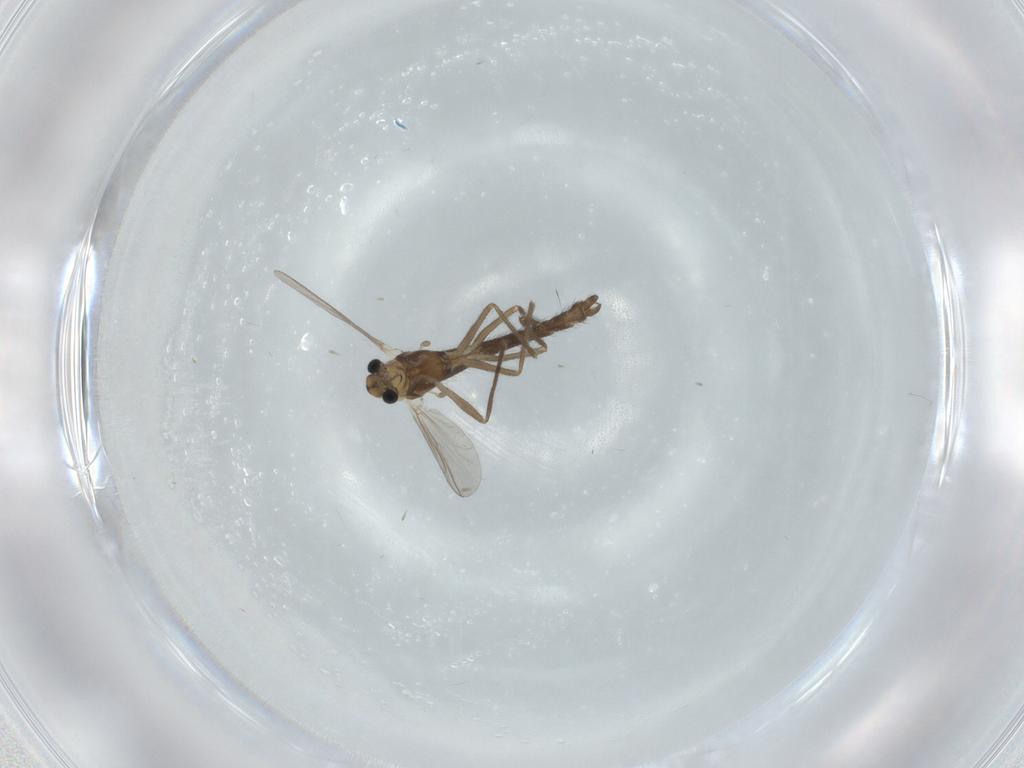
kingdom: Animalia
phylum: Arthropoda
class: Insecta
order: Diptera
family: Chironomidae
